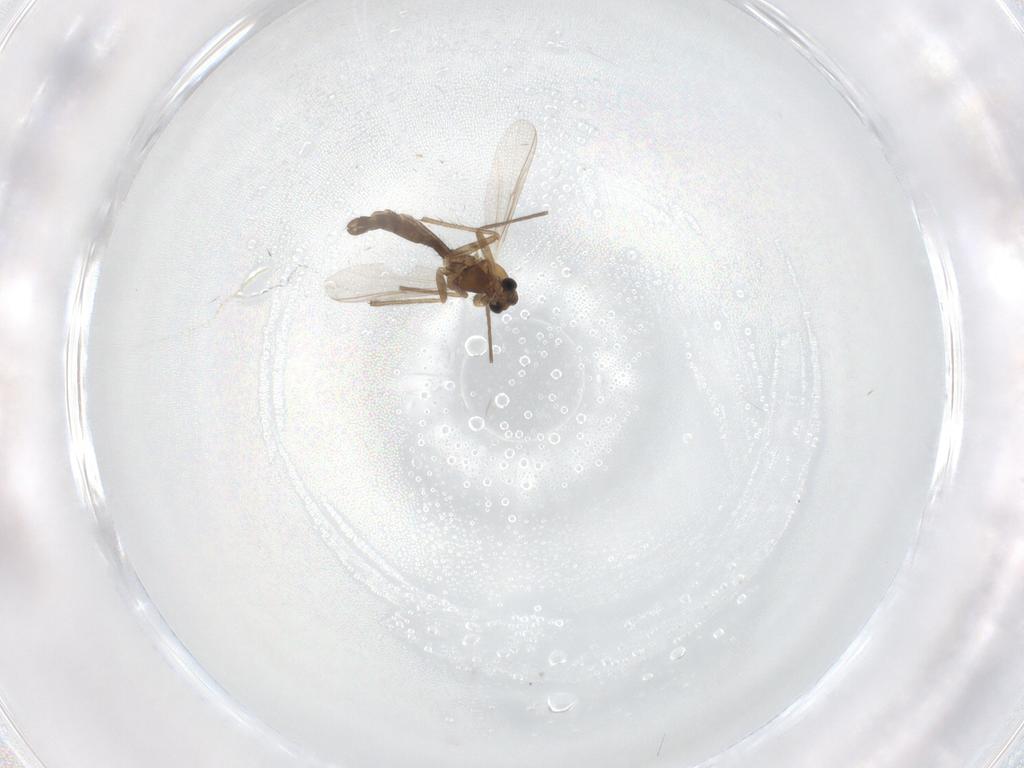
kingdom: Animalia
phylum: Arthropoda
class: Insecta
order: Diptera
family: Chironomidae
